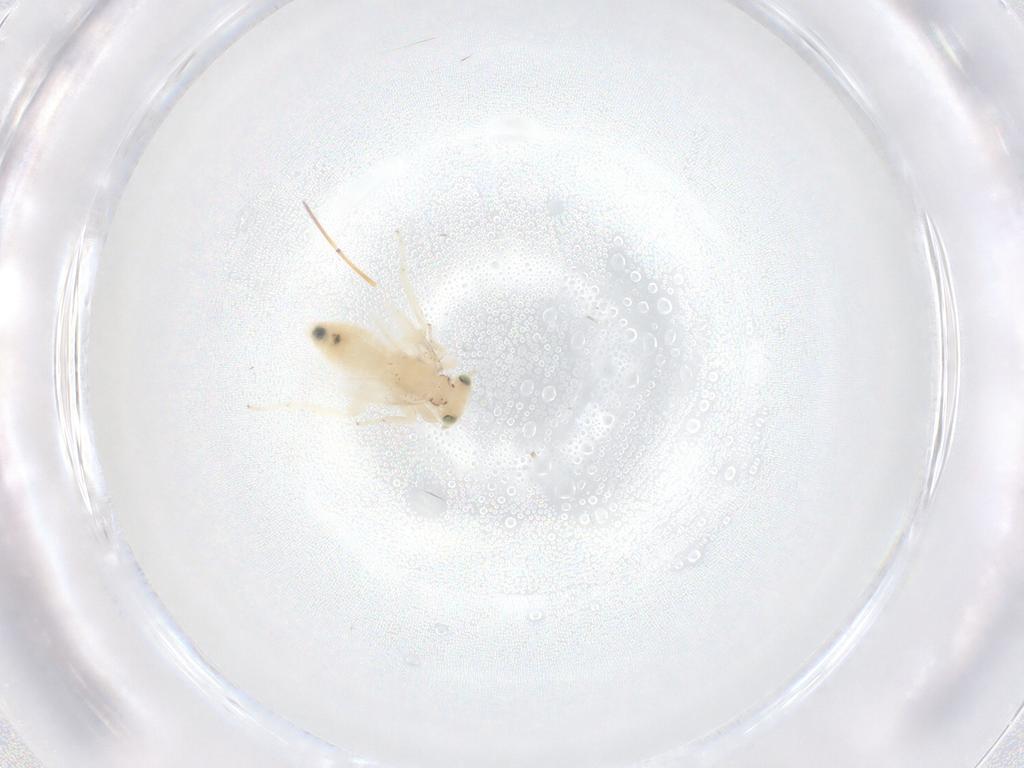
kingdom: Animalia
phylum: Arthropoda
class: Insecta
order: Psocodea
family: Lepidopsocidae
